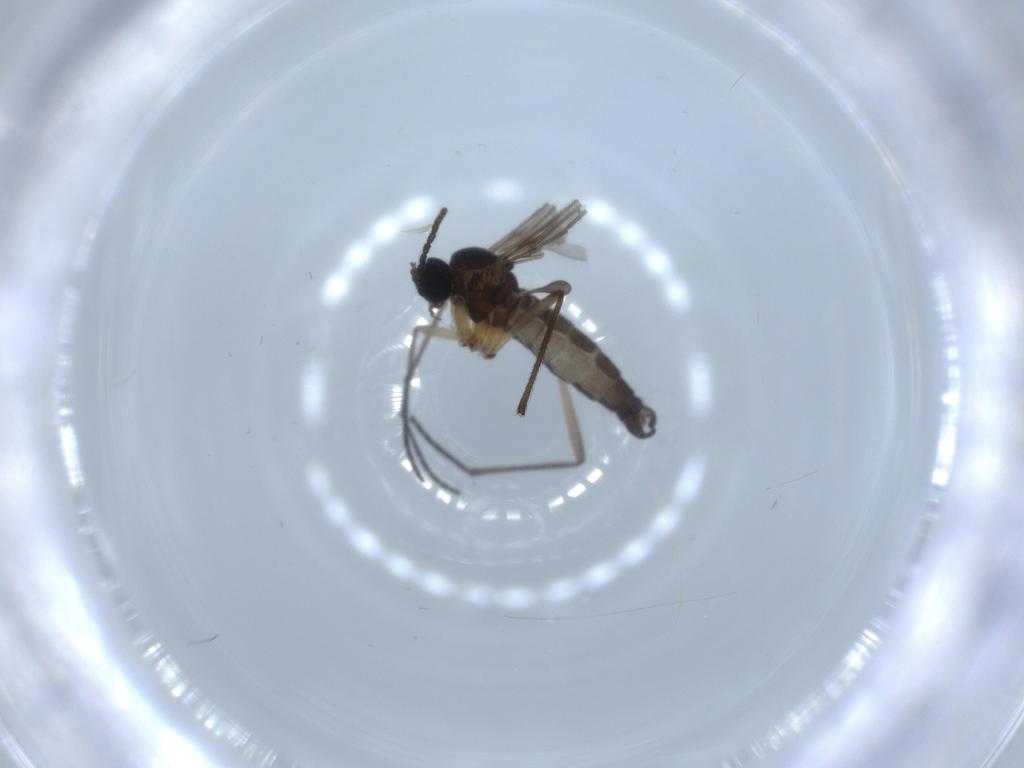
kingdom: Animalia
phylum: Arthropoda
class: Insecta
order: Diptera
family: Sciaridae
